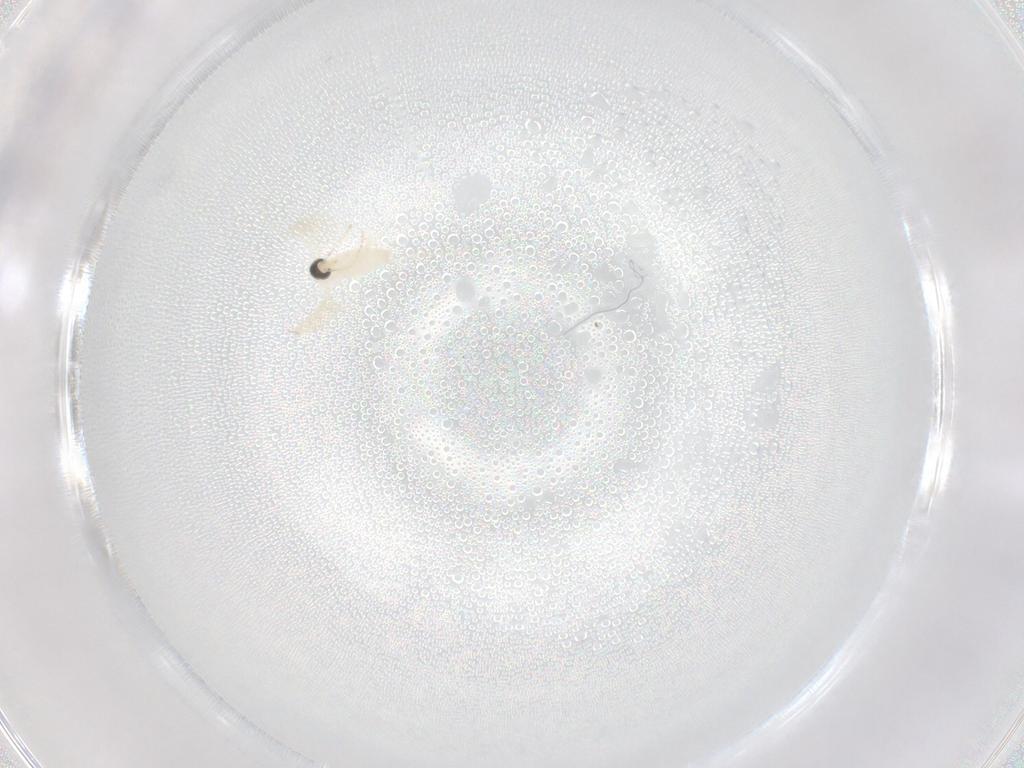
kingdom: Animalia
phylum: Arthropoda
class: Insecta
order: Diptera
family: Cecidomyiidae
